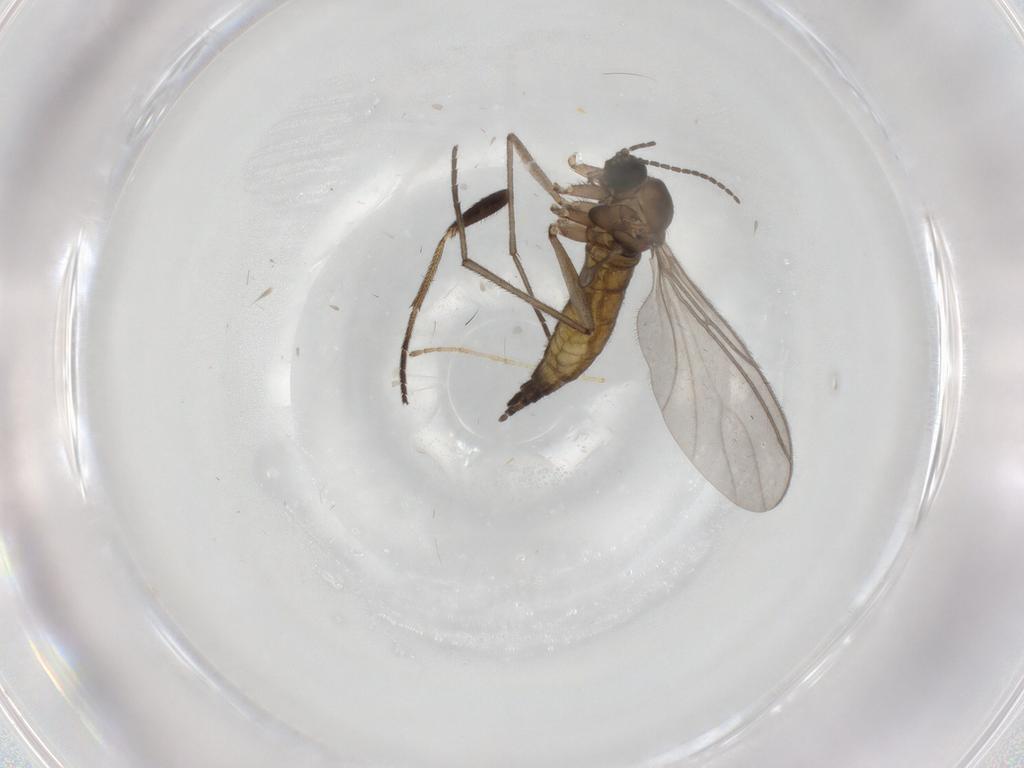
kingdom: Animalia
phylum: Arthropoda
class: Insecta
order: Diptera
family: Sciaridae
